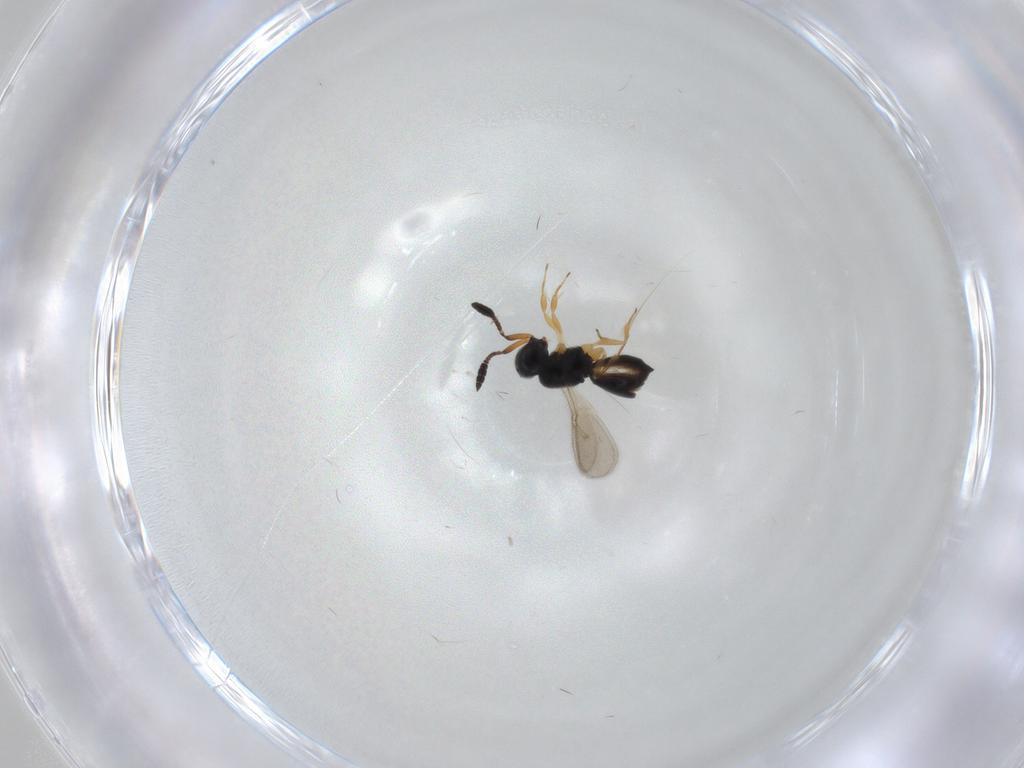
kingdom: Animalia
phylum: Arthropoda
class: Insecta
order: Hymenoptera
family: Scelionidae
